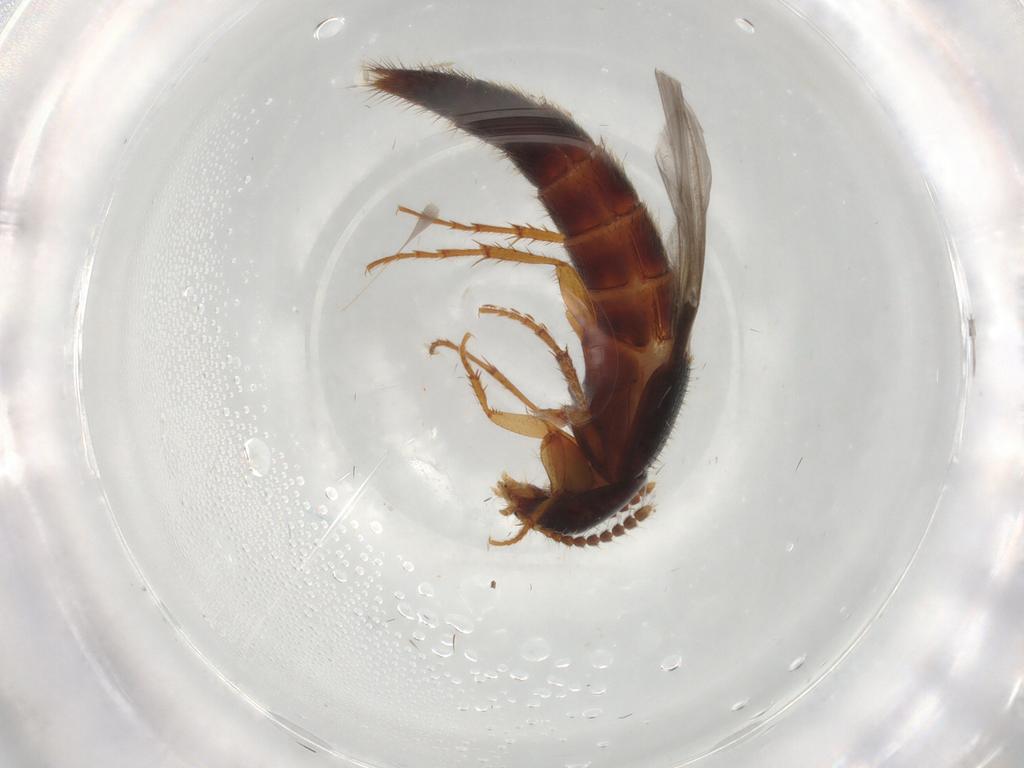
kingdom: Animalia
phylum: Arthropoda
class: Insecta
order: Coleoptera
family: Staphylinidae
